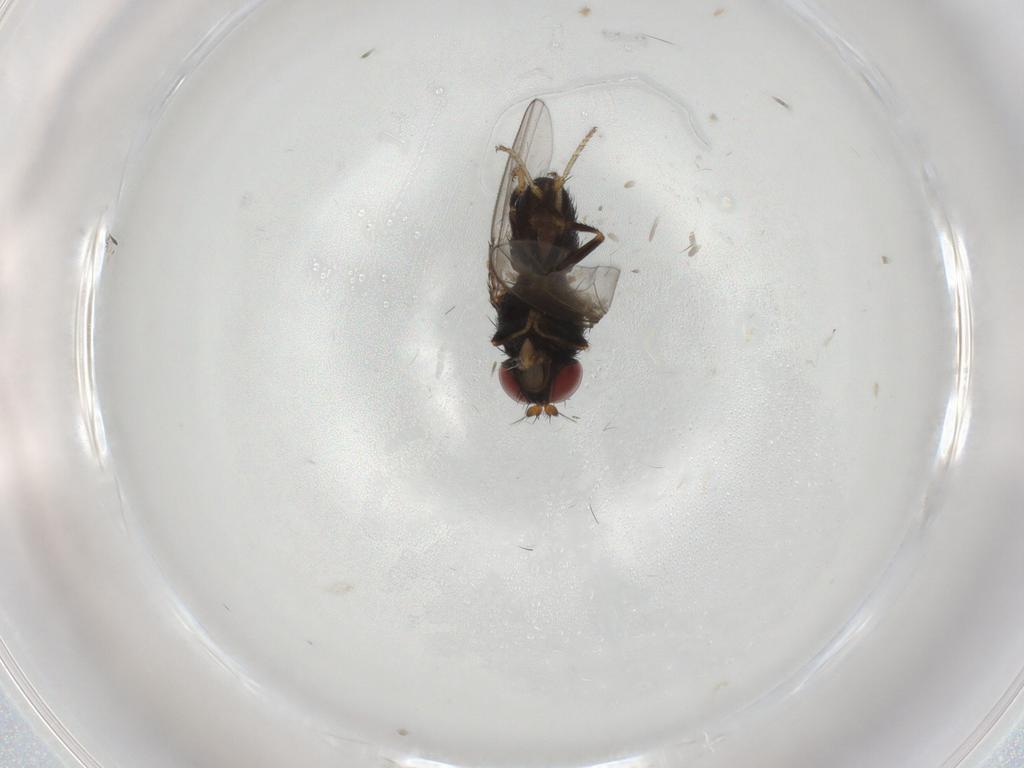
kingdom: Animalia
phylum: Arthropoda
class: Insecta
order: Diptera
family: Ephydridae
